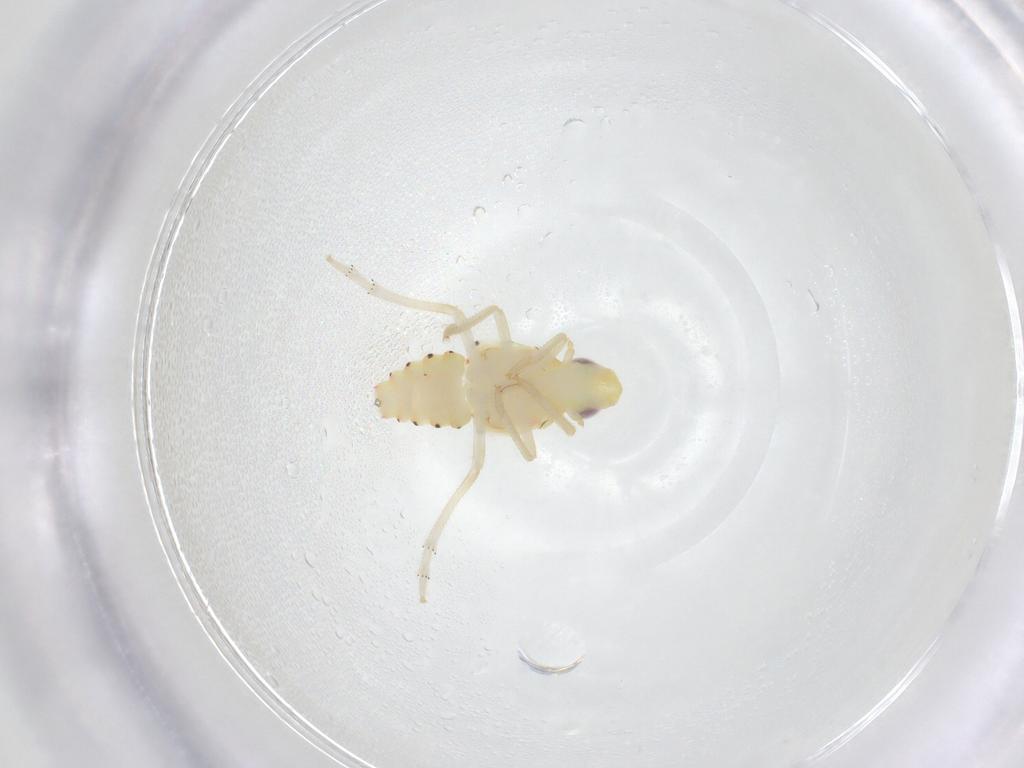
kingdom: Animalia
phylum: Arthropoda
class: Insecta
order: Hemiptera
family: Tropiduchidae
